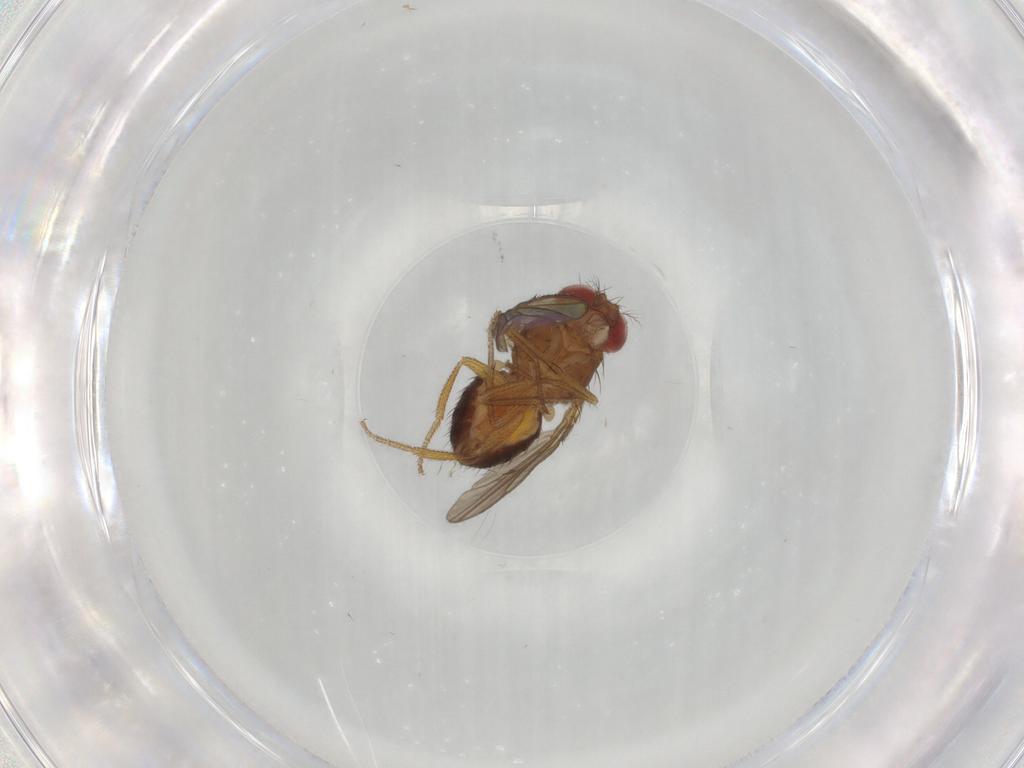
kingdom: Animalia
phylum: Arthropoda
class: Insecta
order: Diptera
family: Drosophilidae
